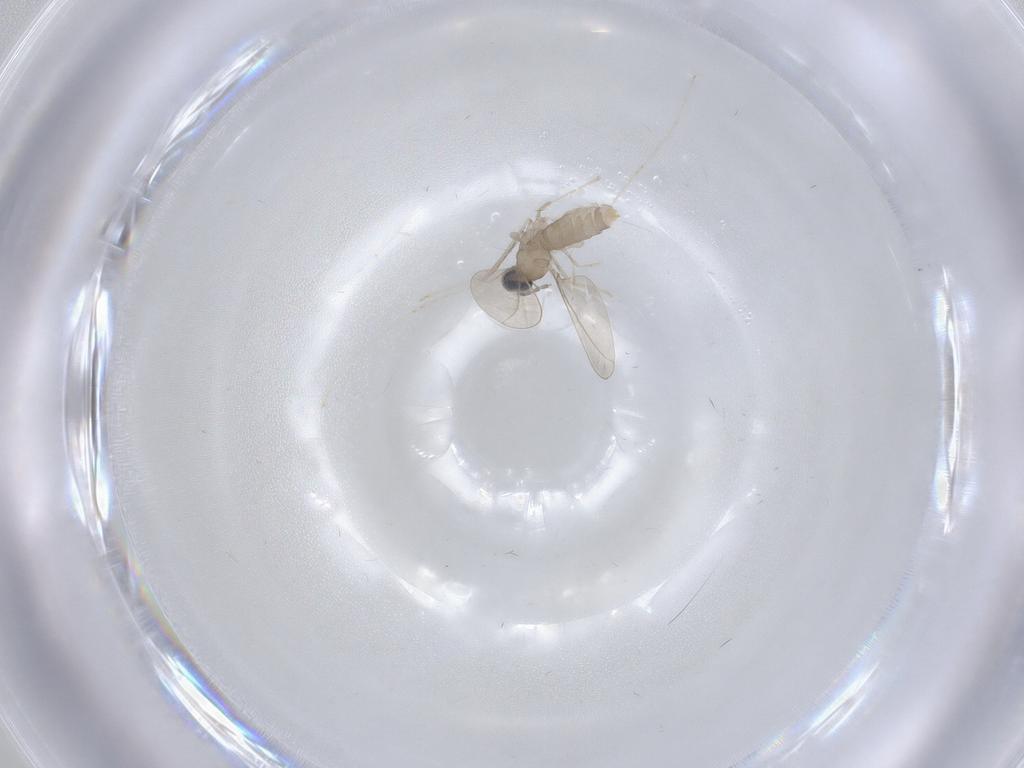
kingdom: Animalia
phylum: Arthropoda
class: Insecta
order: Diptera
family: Cecidomyiidae
